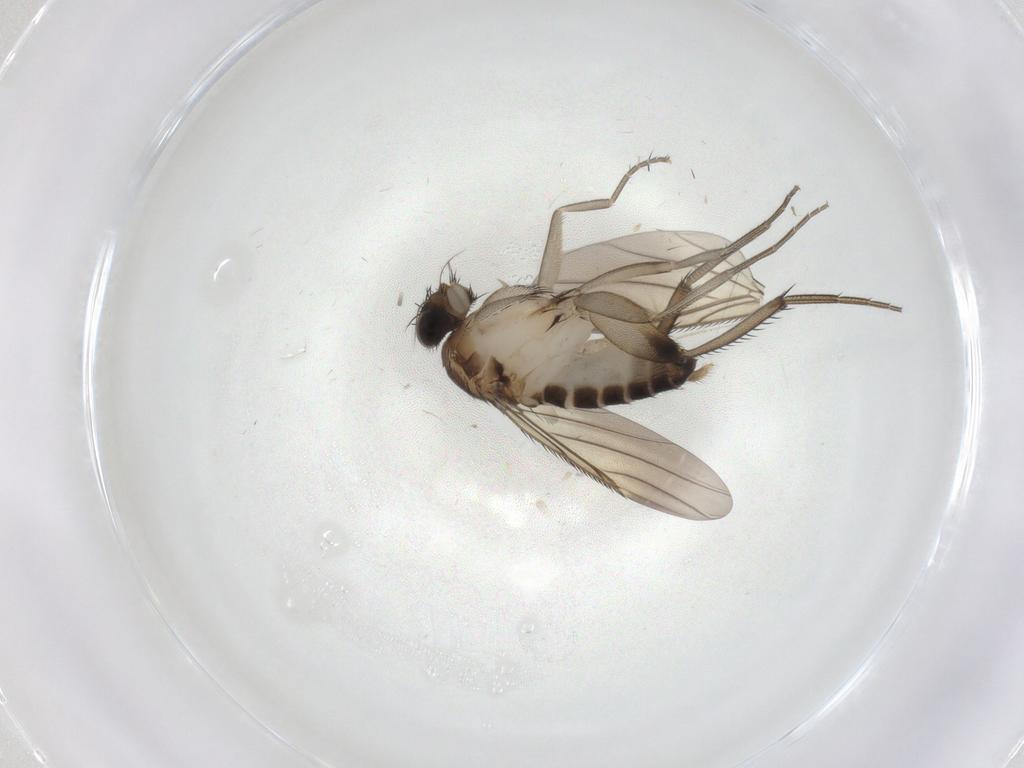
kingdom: Animalia
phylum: Arthropoda
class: Insecta
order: Diptera
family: Phoridae
